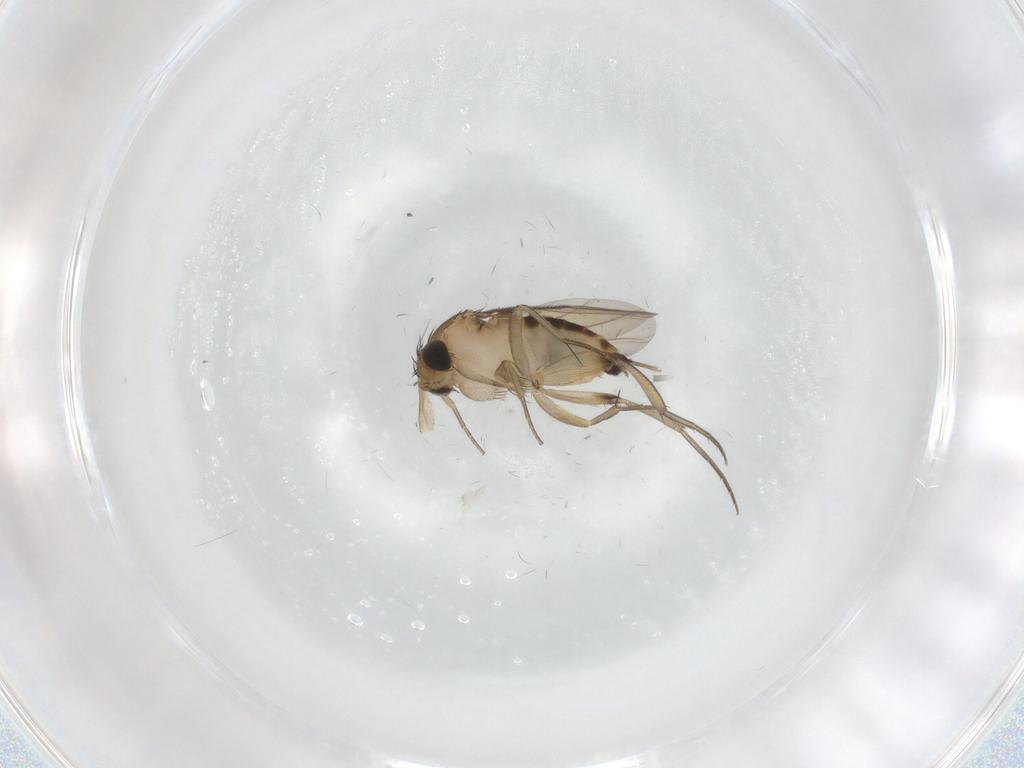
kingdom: Animalia
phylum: Arthropoda
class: Insecta
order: Diptera
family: Phoridae
